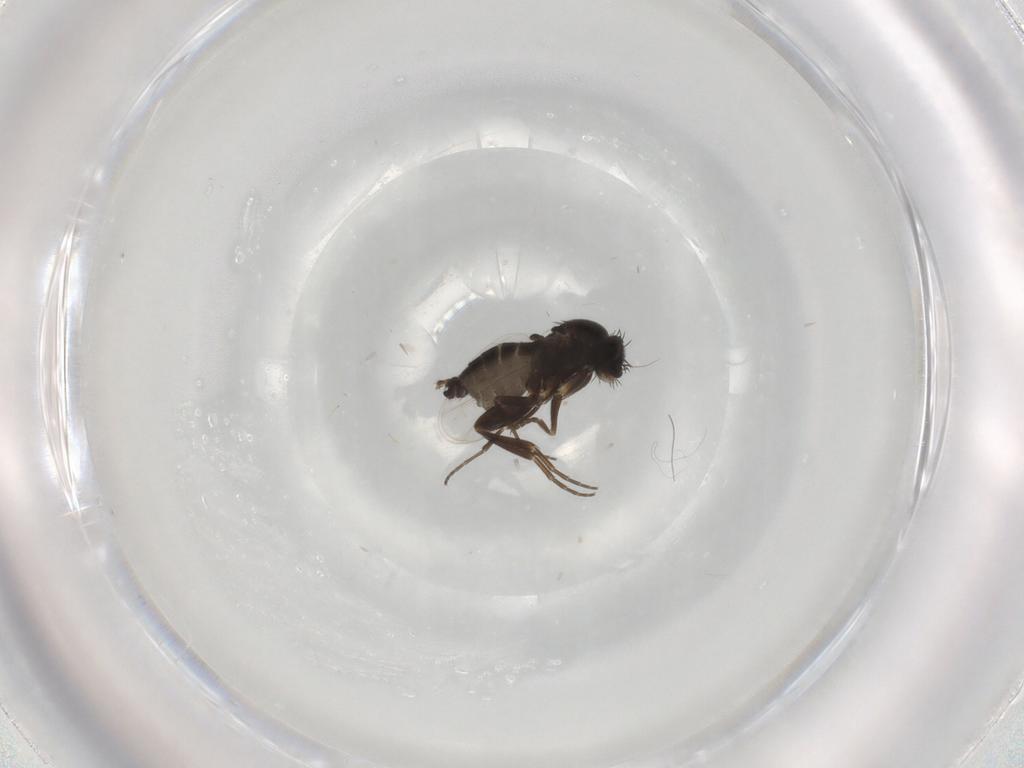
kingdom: Animalia
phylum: Arthropoda
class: Insecta
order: Diptera
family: Phoridae
